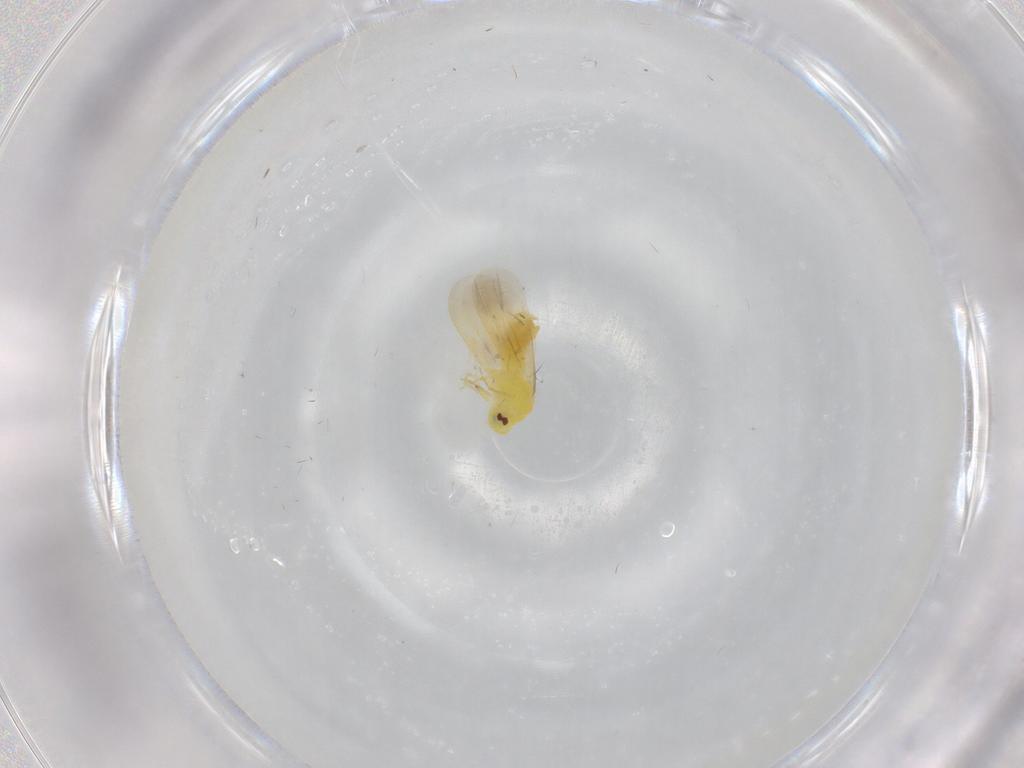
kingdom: Animalia
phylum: Arthropoda
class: Insecta
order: Hemiptera
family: Aleyrodidae
